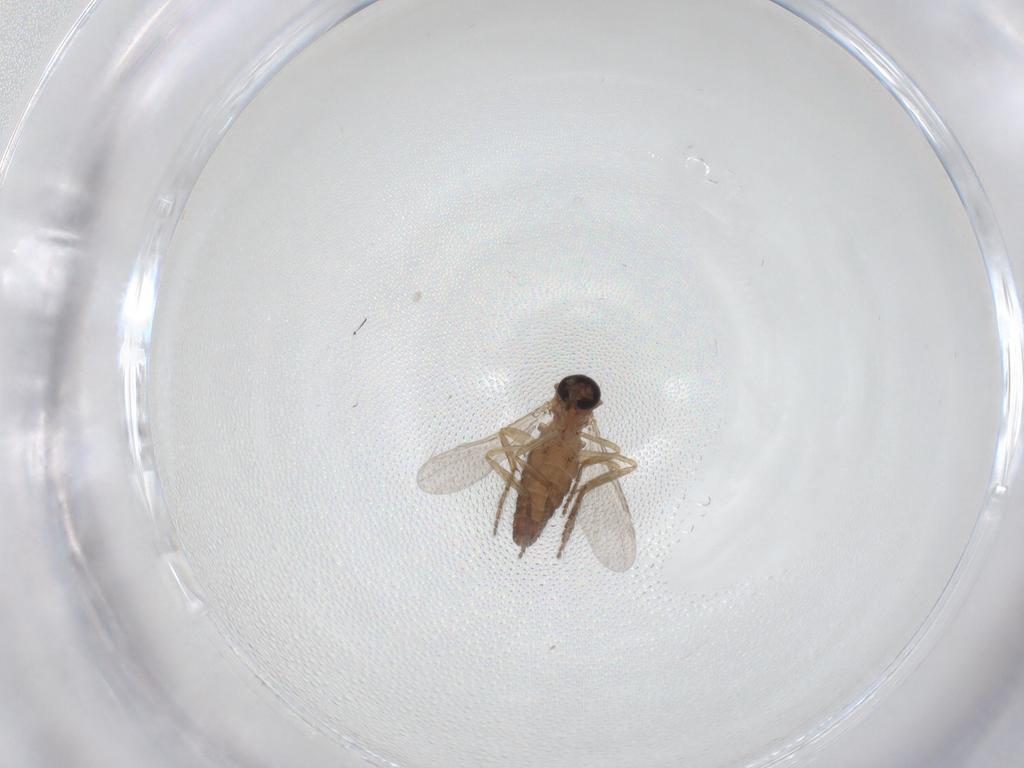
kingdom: Animalia
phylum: Arthropoda
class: Insecta
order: Diptera
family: Ceratopogonidae
